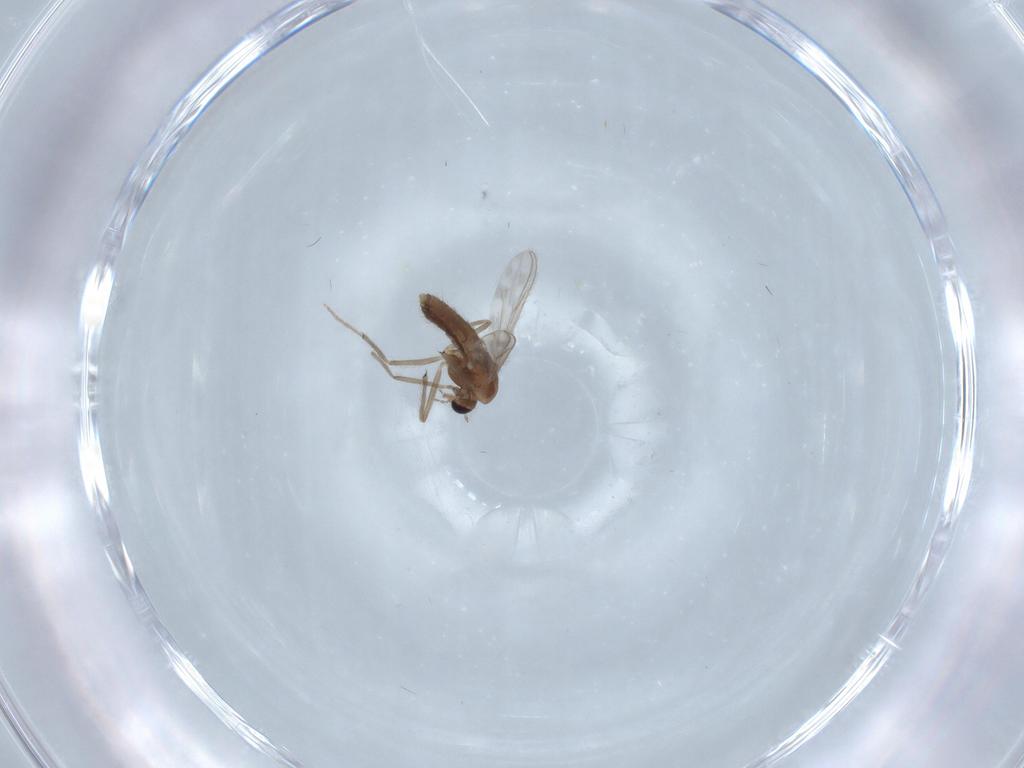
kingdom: Animalia
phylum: Arthropoda
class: Insecta
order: Diptera
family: Chironomidae
